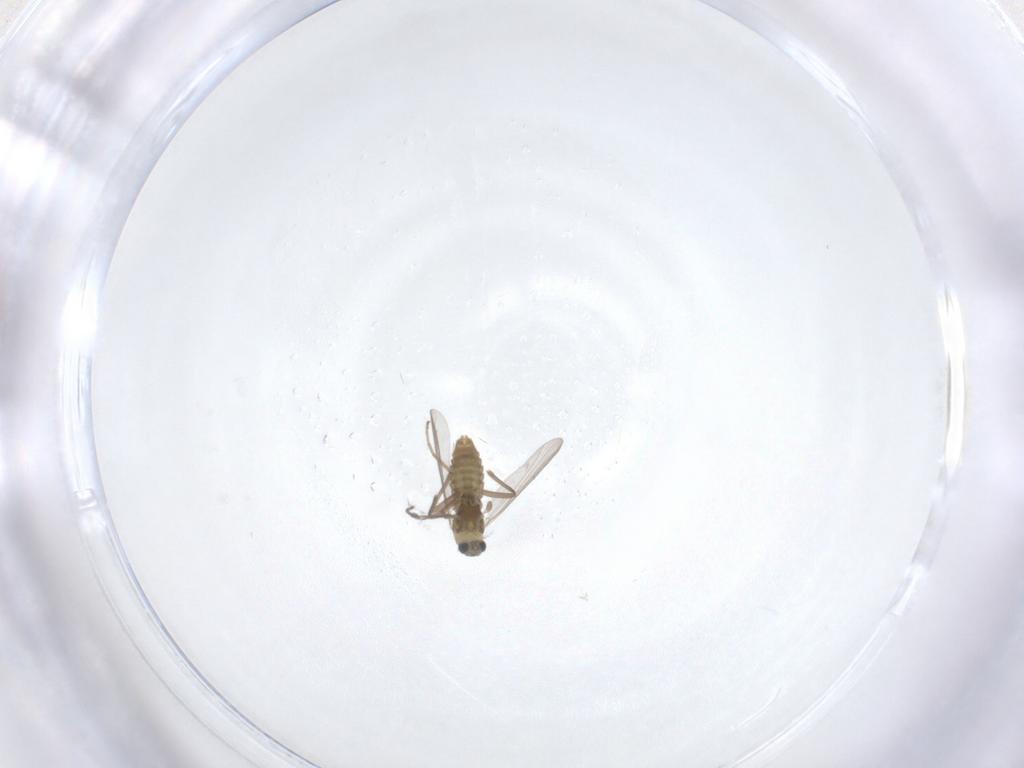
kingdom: Animalia
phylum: Arthropoda
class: Insecta
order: Diptera
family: Chironomidae
